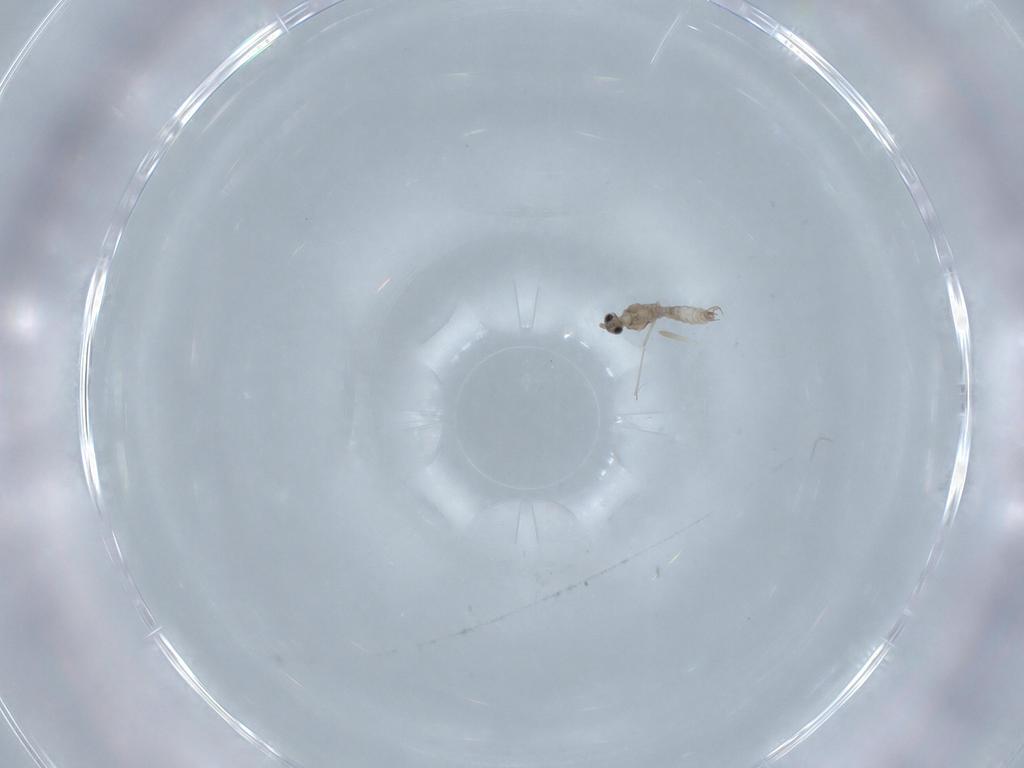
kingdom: Animalia
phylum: Arthropoda
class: Insecta
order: Diptera
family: Cecidomyiidae
